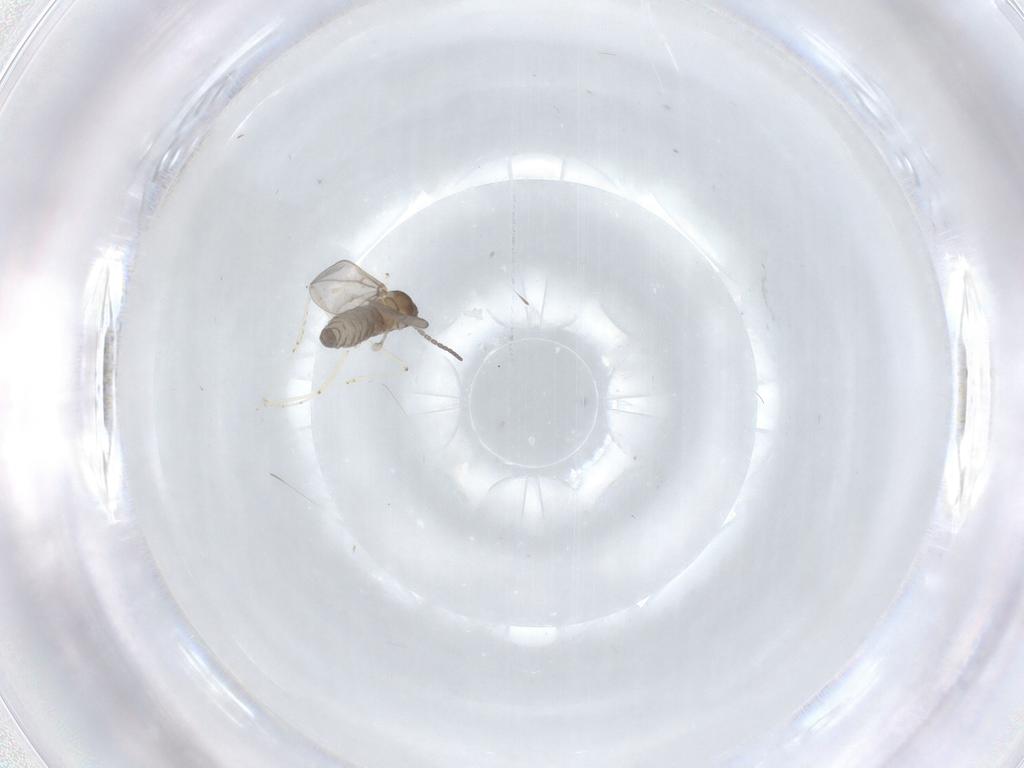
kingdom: Animalia
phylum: Arthropoda
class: Insecta
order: Diptera
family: Cecidomyiidae
